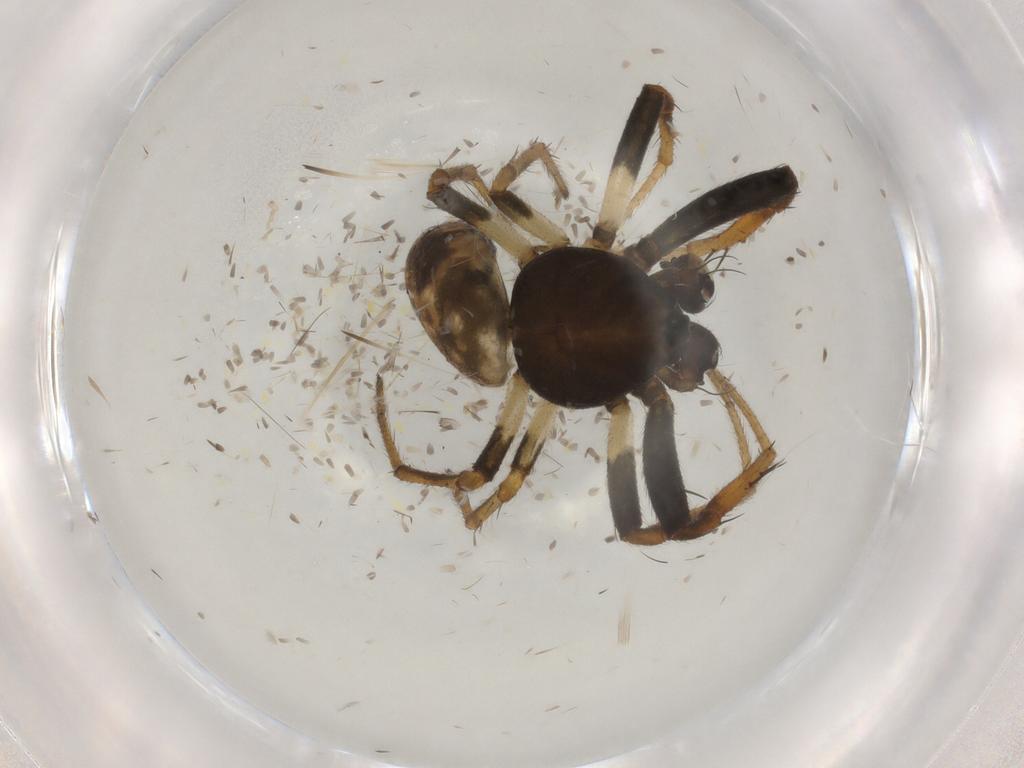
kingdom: Animalia
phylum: Arthropoda
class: Arachnida
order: Araneae
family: Araneidae
